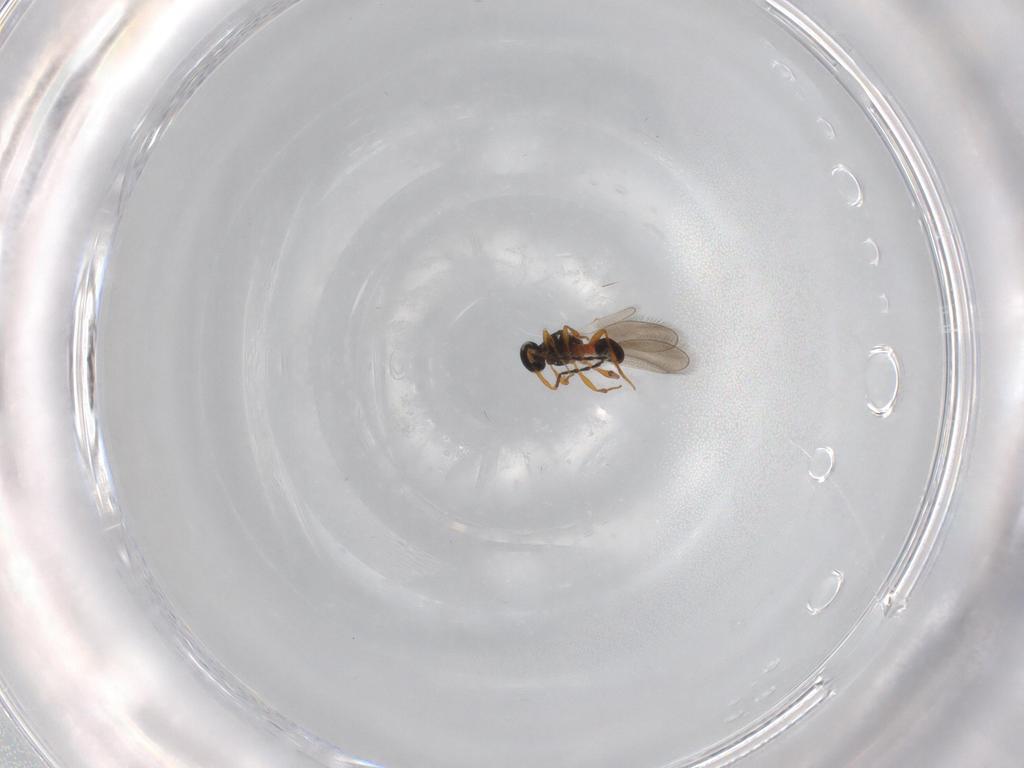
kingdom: Animalia
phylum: Arthropoda
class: Insecta
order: Hymenoptera
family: Platygastridae
